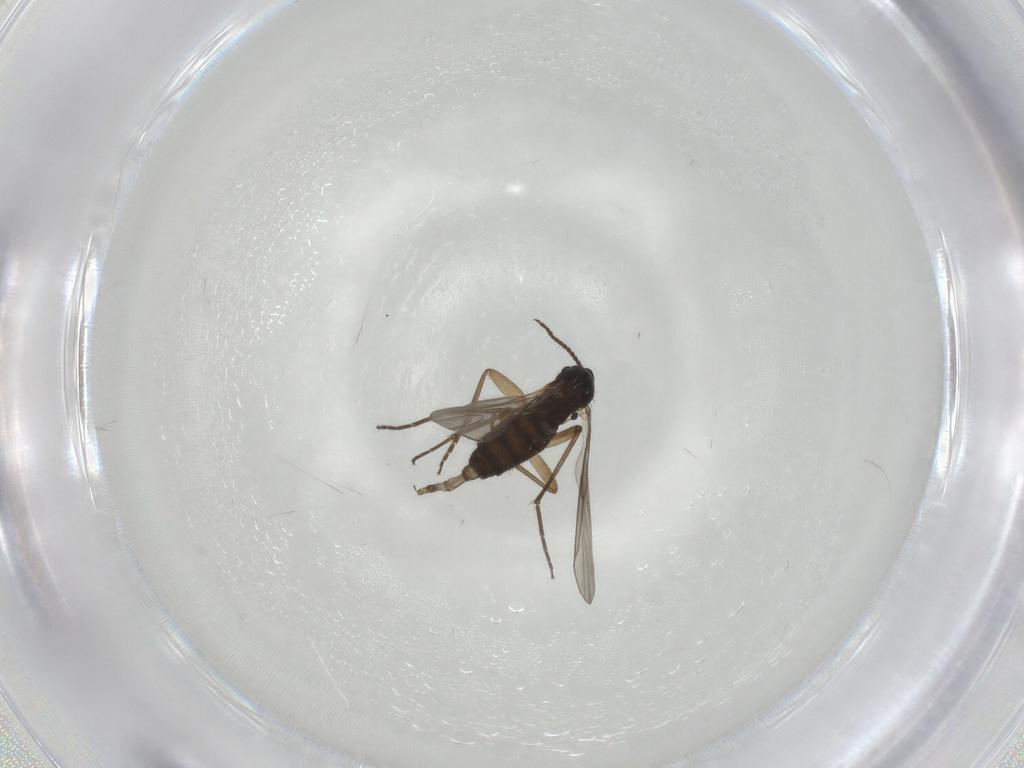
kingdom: Animalia
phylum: Arthropoda
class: Insecta
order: Diptera
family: Sciaridae
